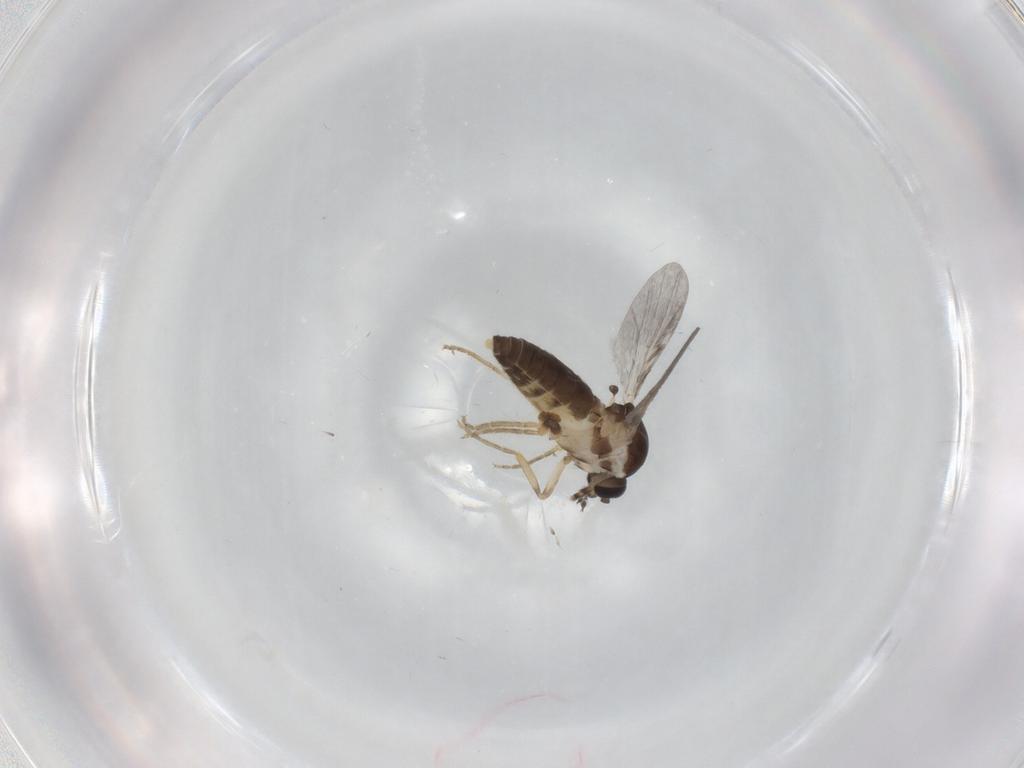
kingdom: Animalia
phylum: Arthropoda
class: Insecta
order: Diptera
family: Ceratopogonidae
